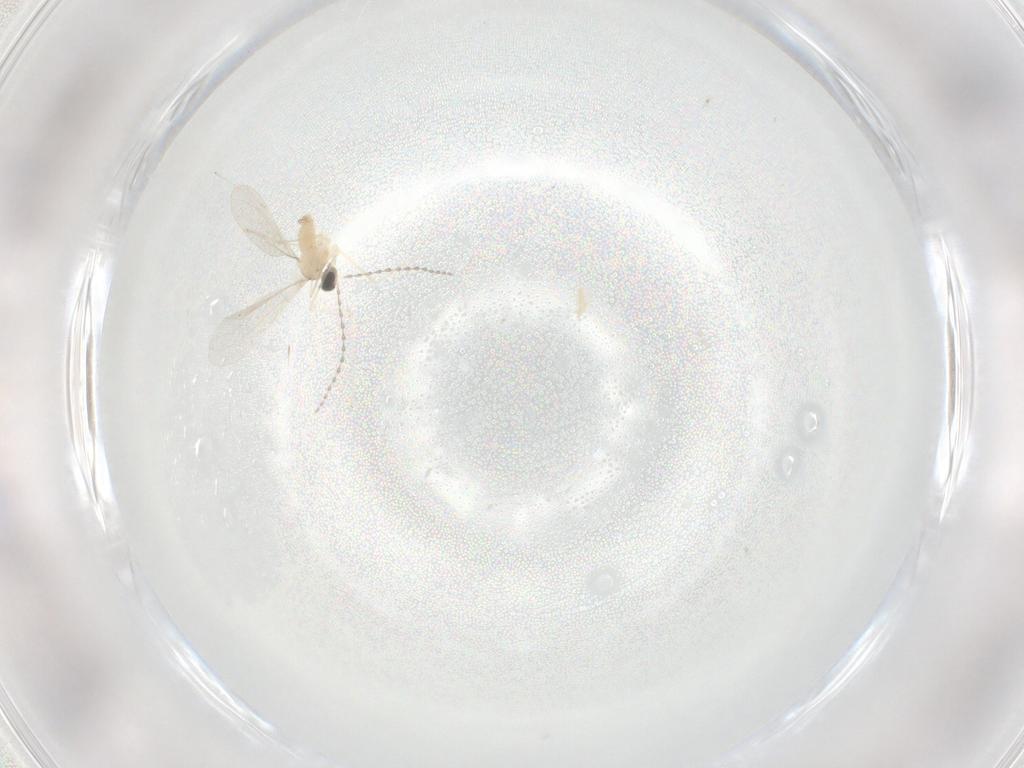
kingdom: Animalia
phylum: Arthropoda
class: Insecta
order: Diptera
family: Cecidomyiidae
